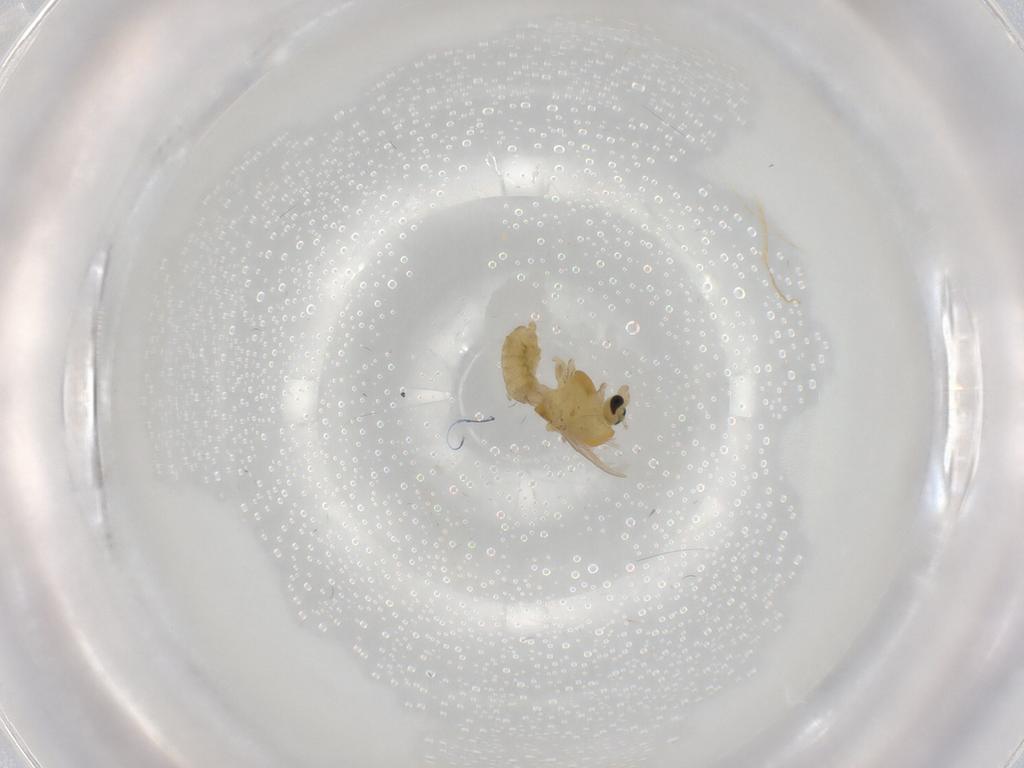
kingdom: Animalia
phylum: Arthropoda
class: Insecta
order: Diptera
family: Chironomidae
